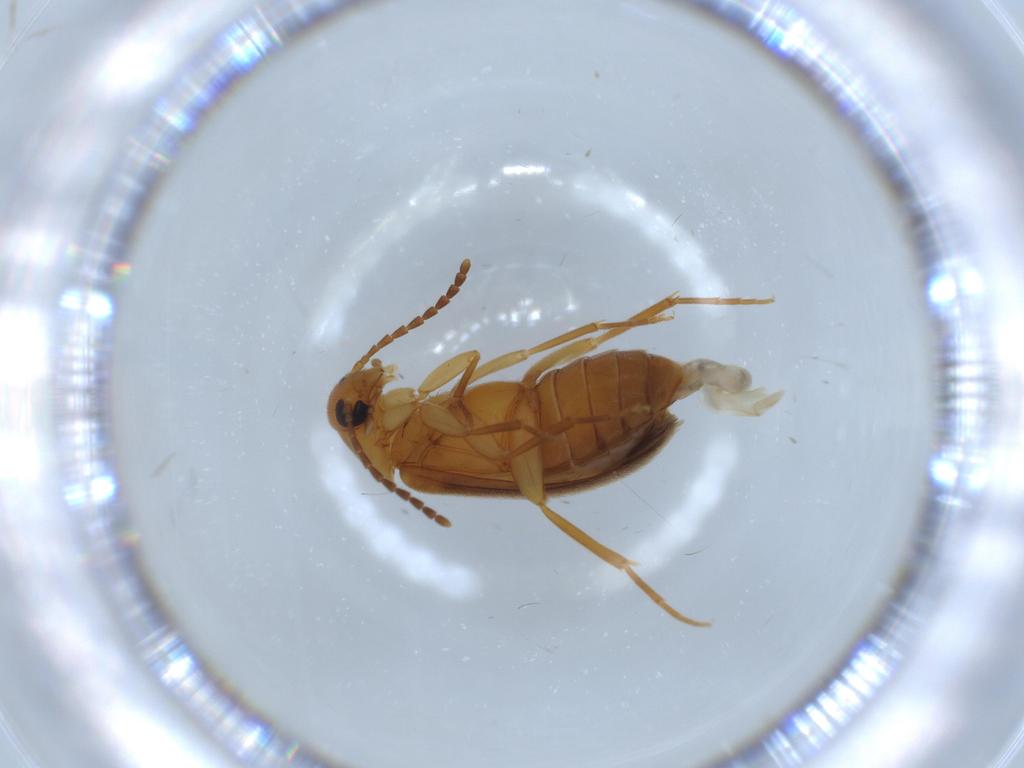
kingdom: Animalia
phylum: Arthropoda
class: Insecta
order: Coleoptera
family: Scraptiidae
